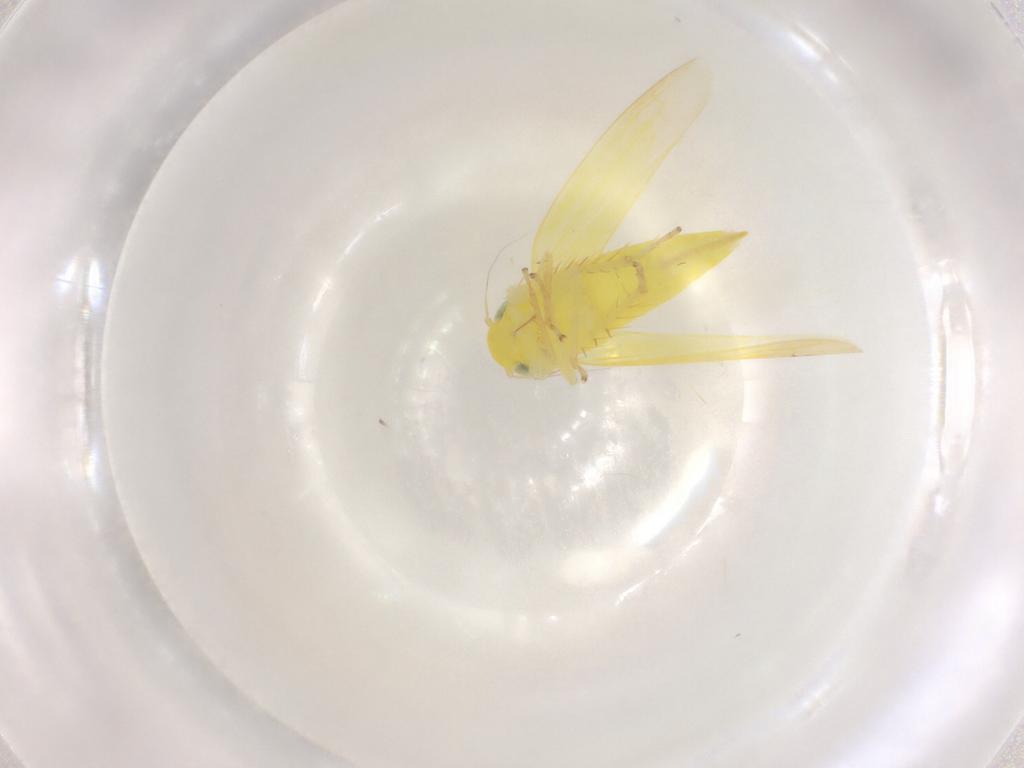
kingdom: Animalia
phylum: Arthropoda
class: Insecta
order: Hemiptera
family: Cicadellidae
